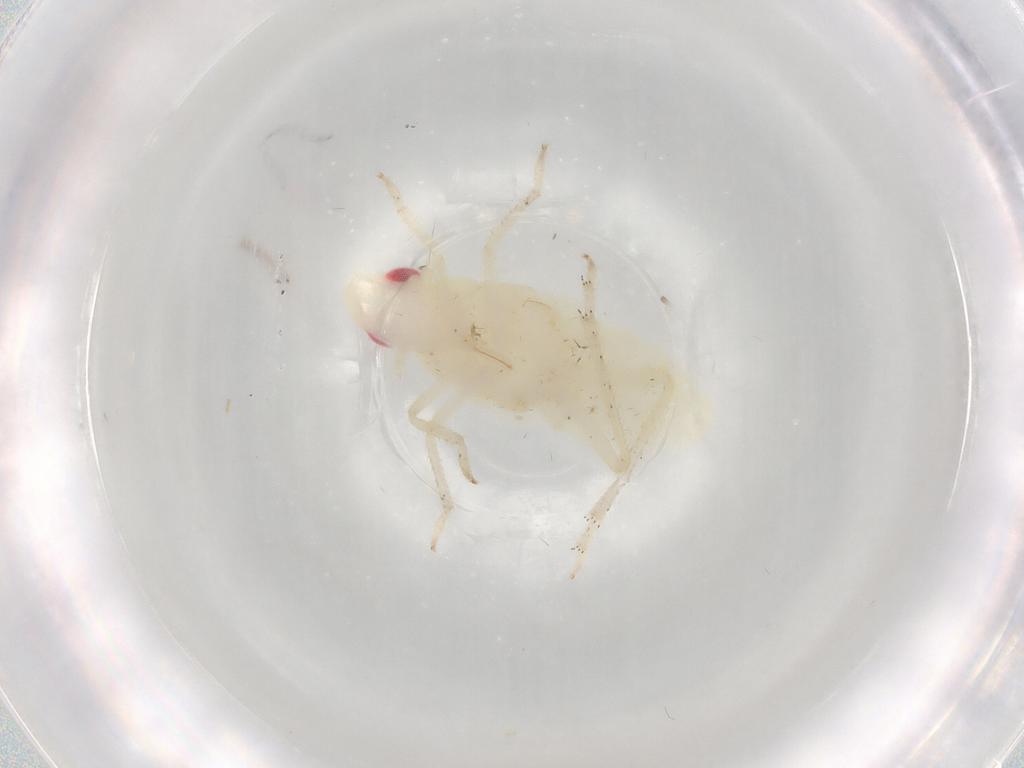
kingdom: Animalia
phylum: Arthropoda
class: Insecta
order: Hemiptera
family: Tropiduchidae
